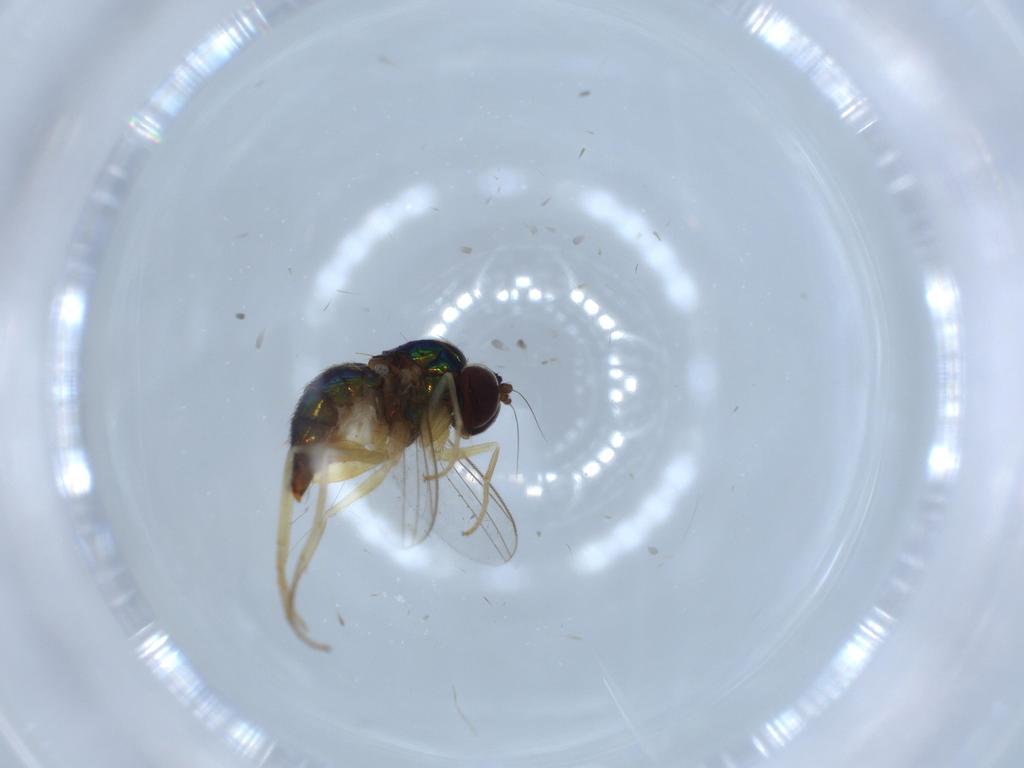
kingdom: Animalia
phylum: Arthropoda
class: Insecta
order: Diptera
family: Dolichopodidae
